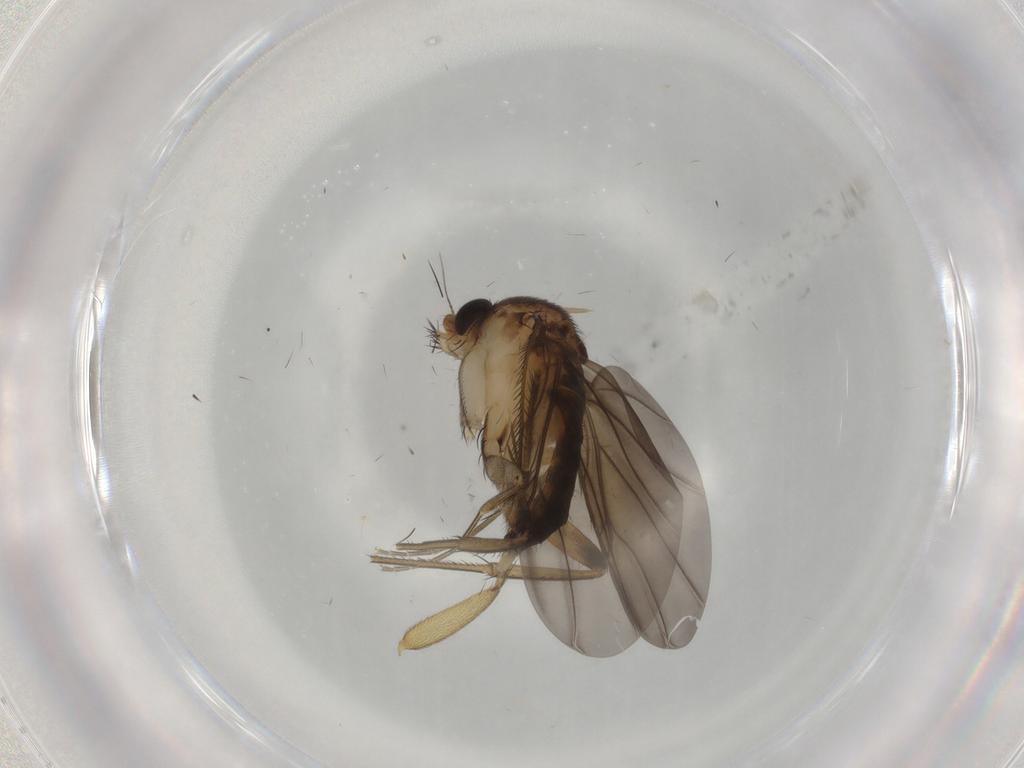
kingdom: Animalia
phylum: Arthropoda
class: Insecta
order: Diptera
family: Phoridae
